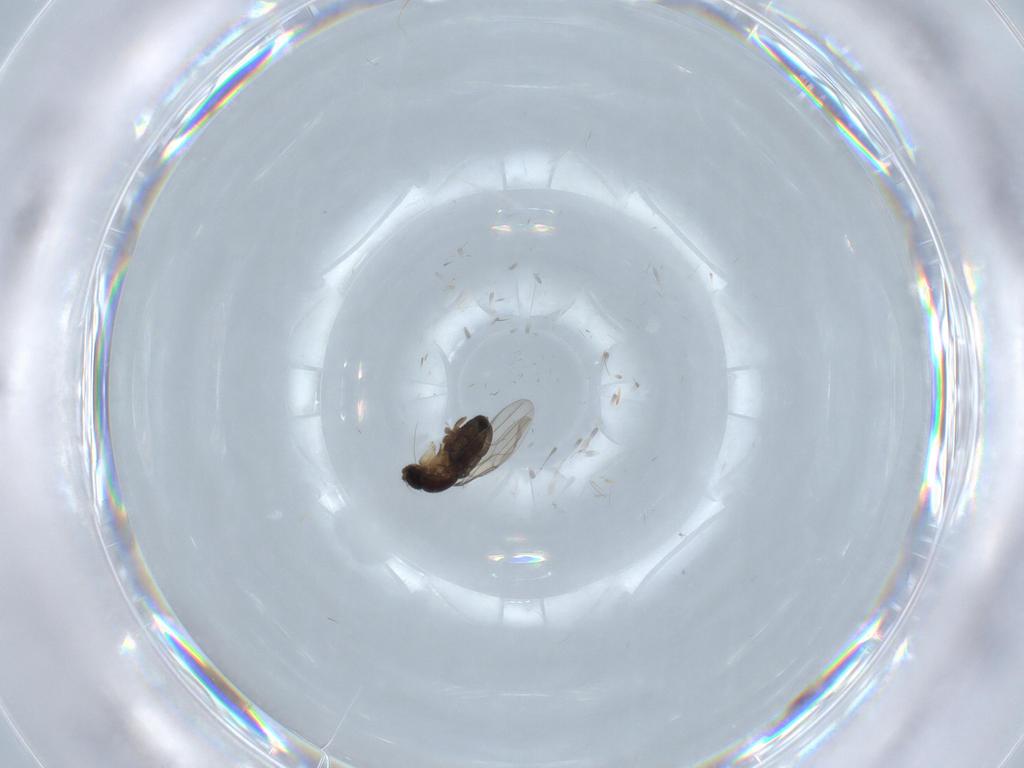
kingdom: Animalia
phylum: Arthropoda
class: Insecta
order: Diptera
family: Phoridae
